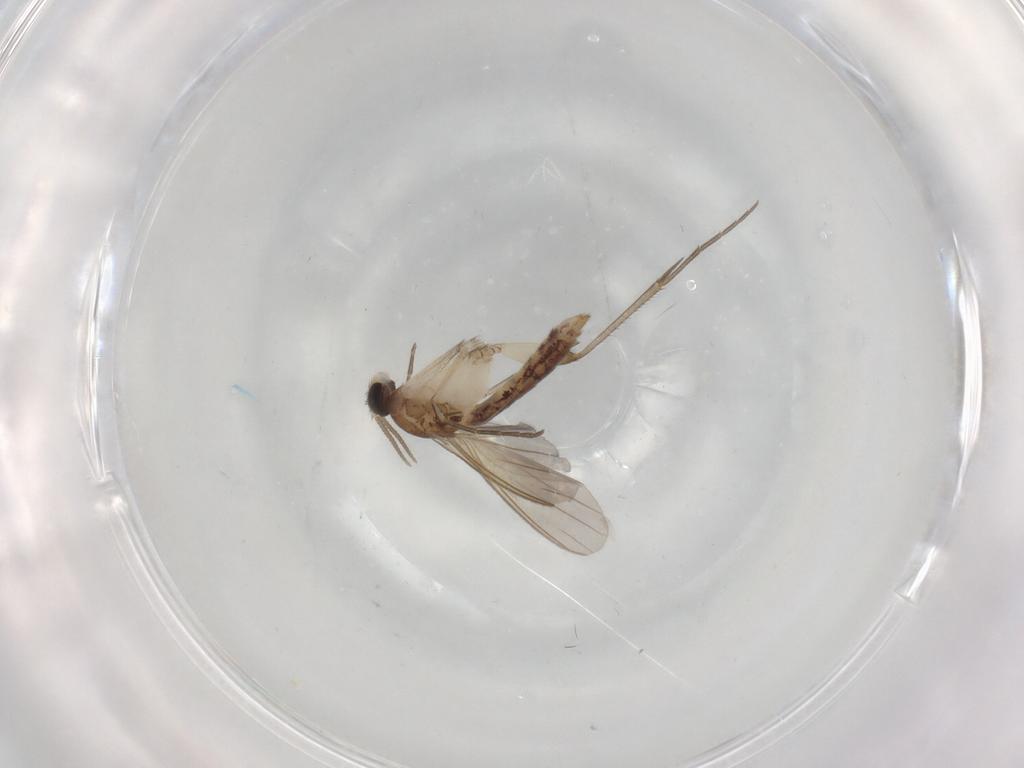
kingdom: Animalia
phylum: Arthropoda
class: Insecta
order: Diptera
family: Mycetophilidae
